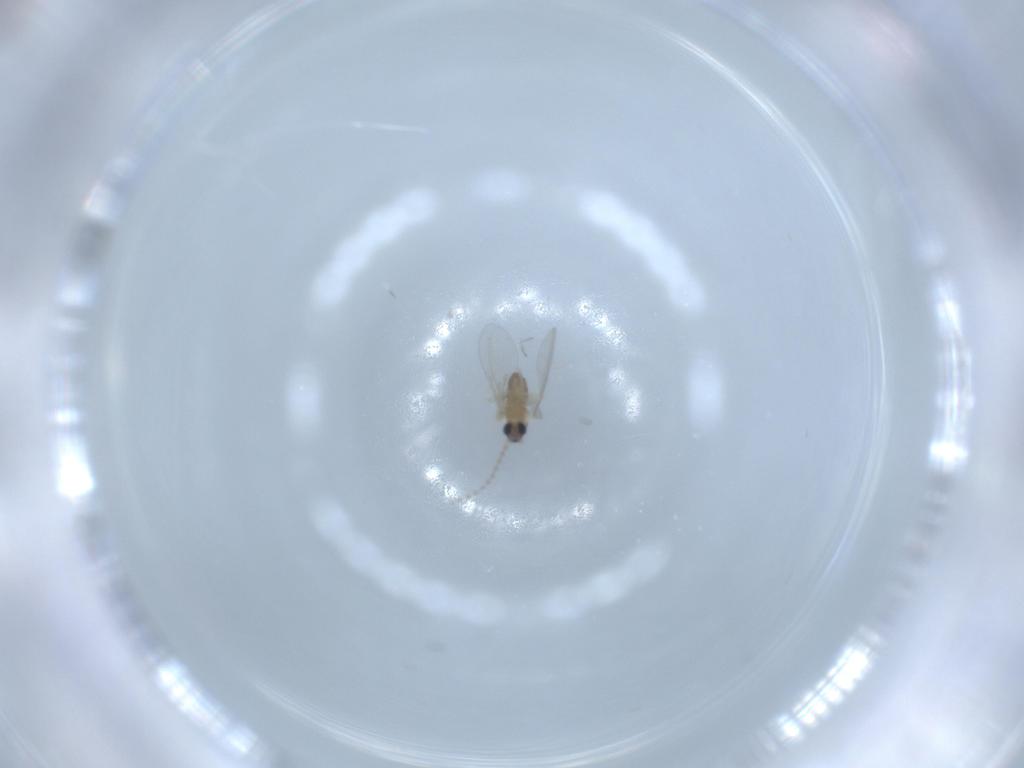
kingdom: Animalia
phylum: Arthropoda
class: Insecta
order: Diptera
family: Cecidomyiidae
